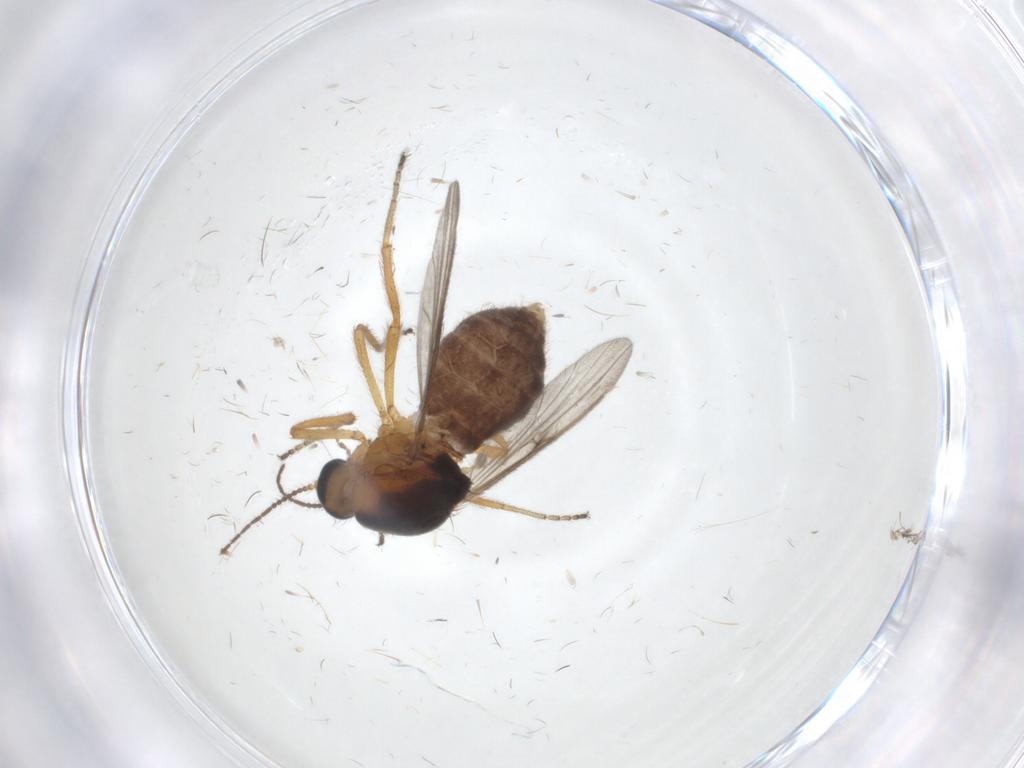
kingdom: Animalia
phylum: Arthropoda
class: Insecta
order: Diptera
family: Ceratopogonidae
